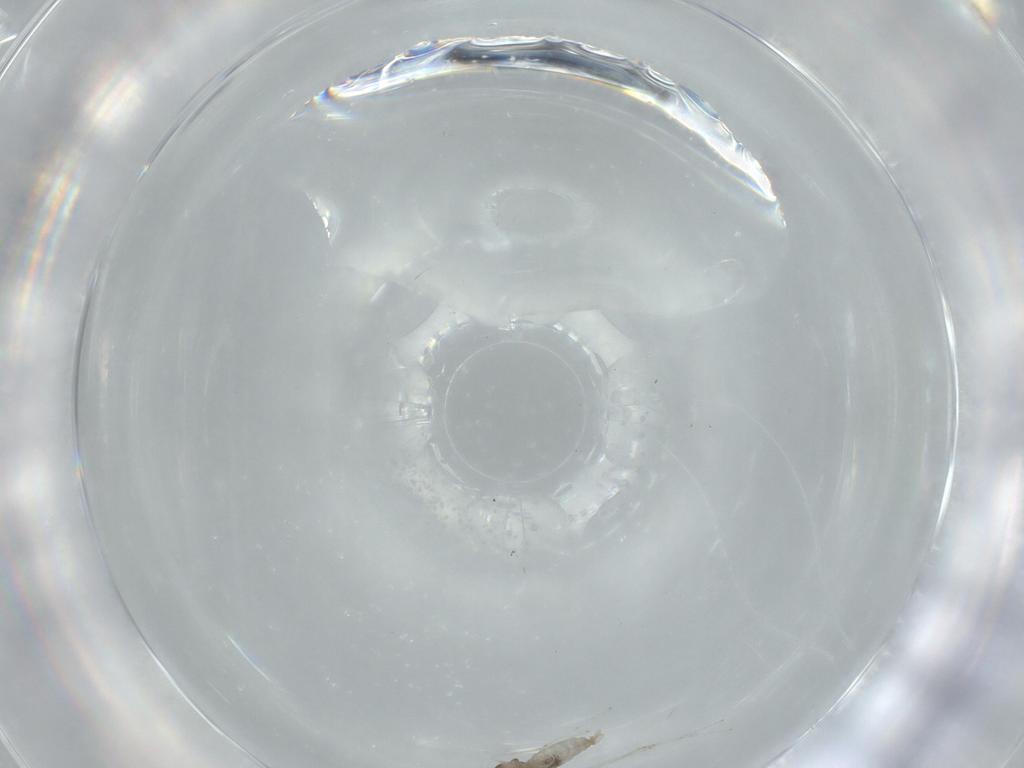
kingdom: Animalia
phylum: Arthropoda
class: Insecta
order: Diptera
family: Cecidomyiidae
